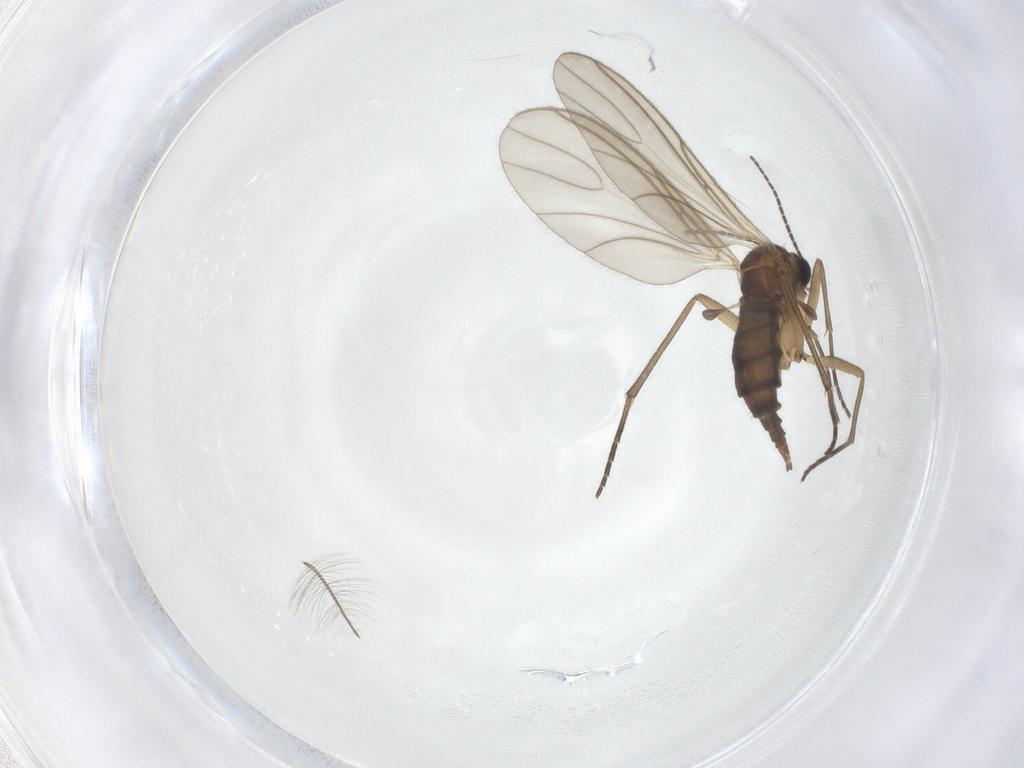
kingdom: Animalia
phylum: Arthropoda
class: Insecta
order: Diptera
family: Sciaridae
